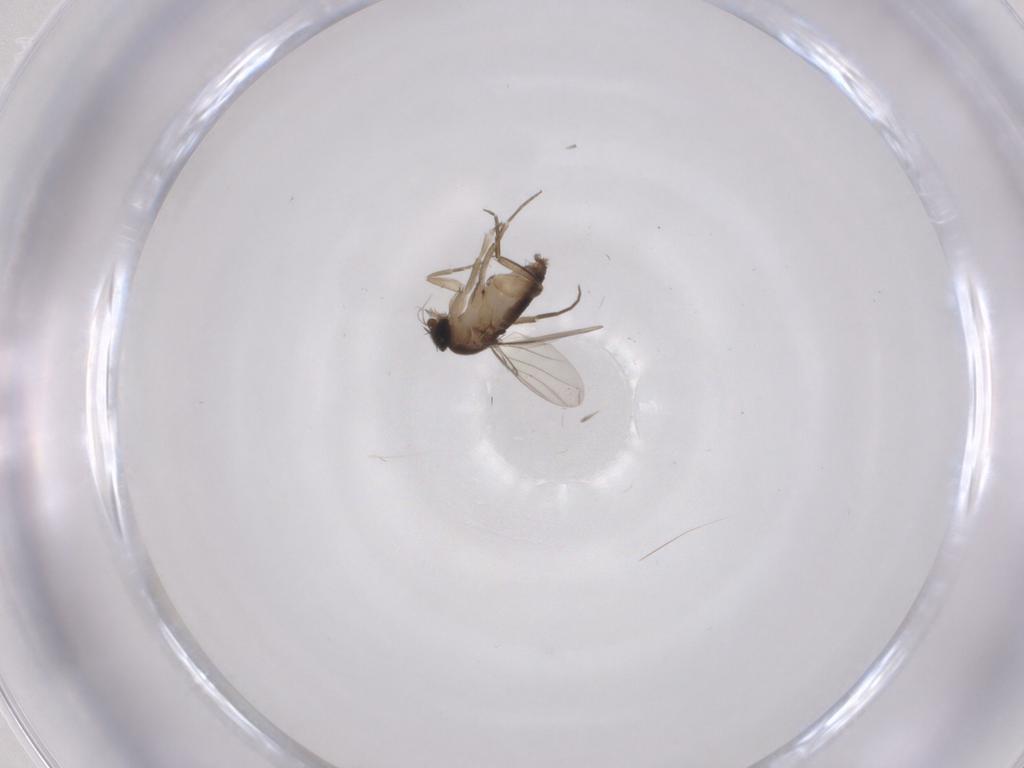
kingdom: Animalia
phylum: Arthropoda
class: Insecta
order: Diptera
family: Phoridae
